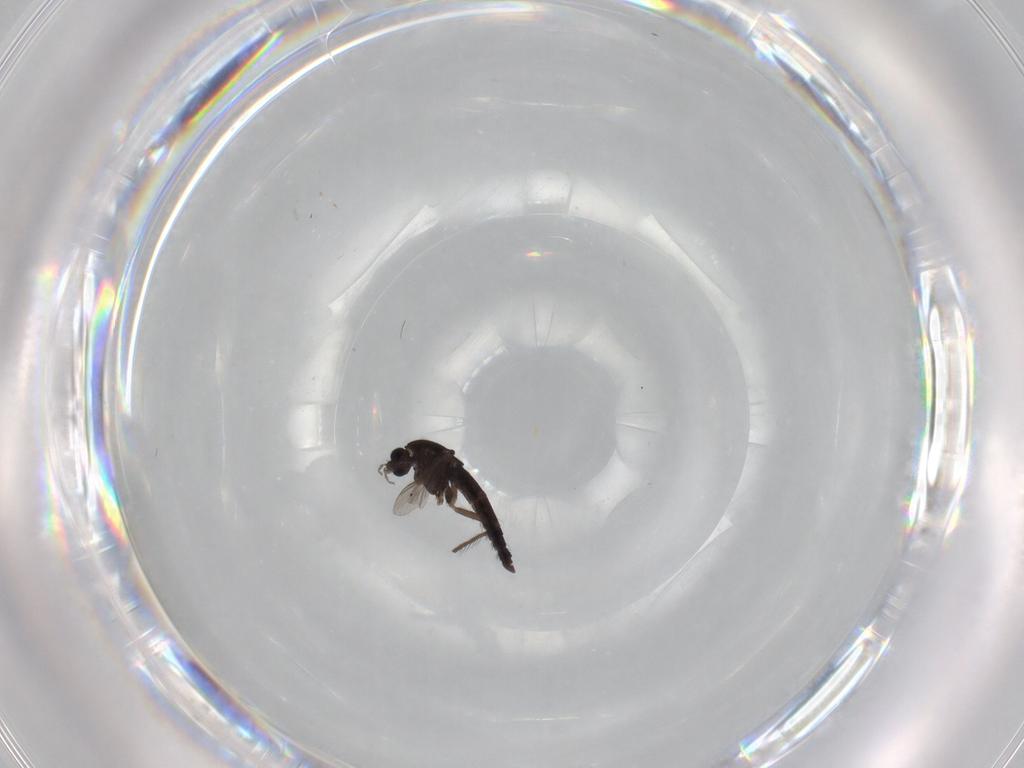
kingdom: Animalia
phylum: Arthropoda
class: Insecta
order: Diptera
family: Chironomidae
